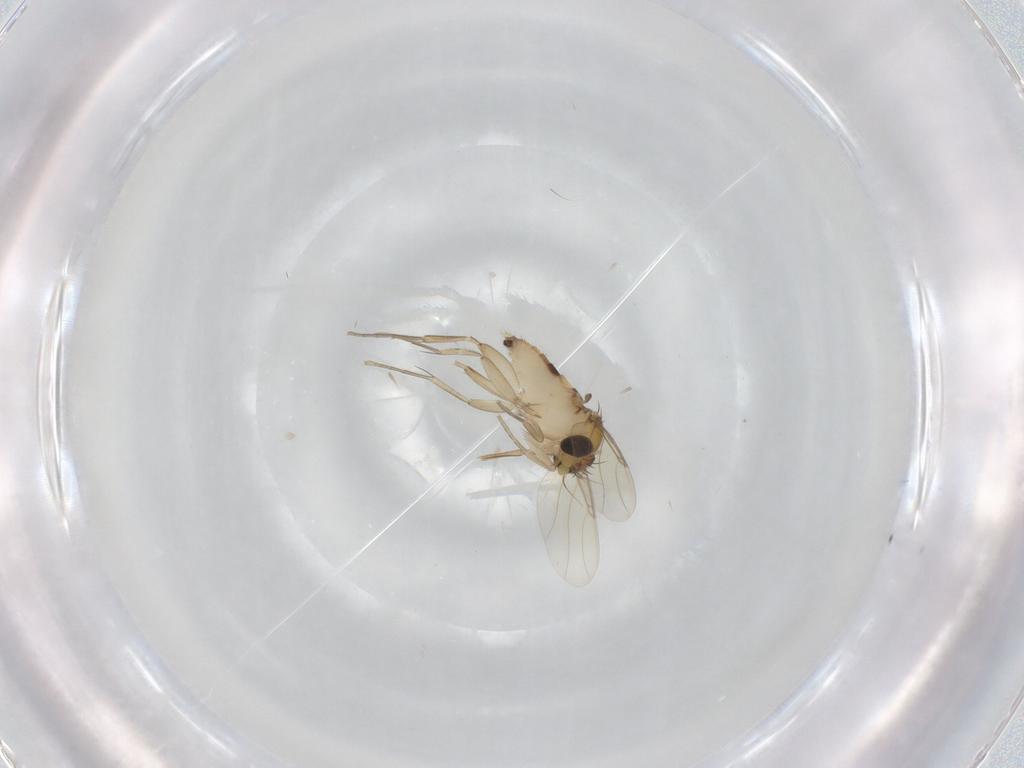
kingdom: Animalia
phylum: Arthropoda
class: Insecta
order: Diptera
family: Phoridae
